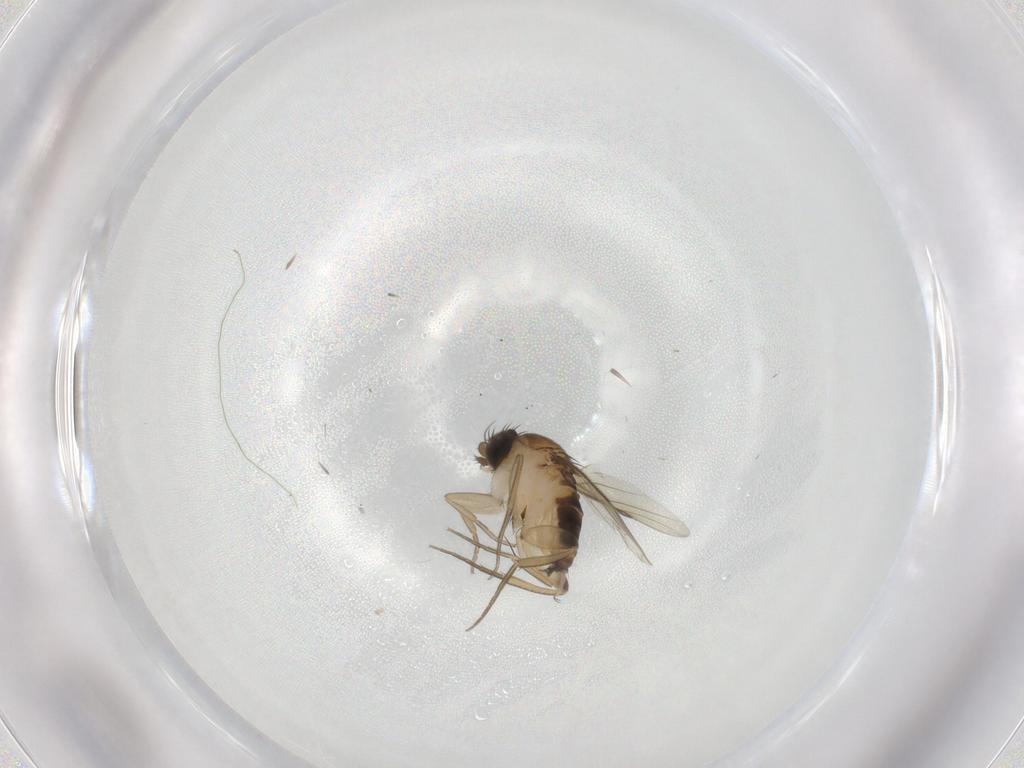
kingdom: Animalia
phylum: Arthropoda
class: Insecta
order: Diptera
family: Phoridae
